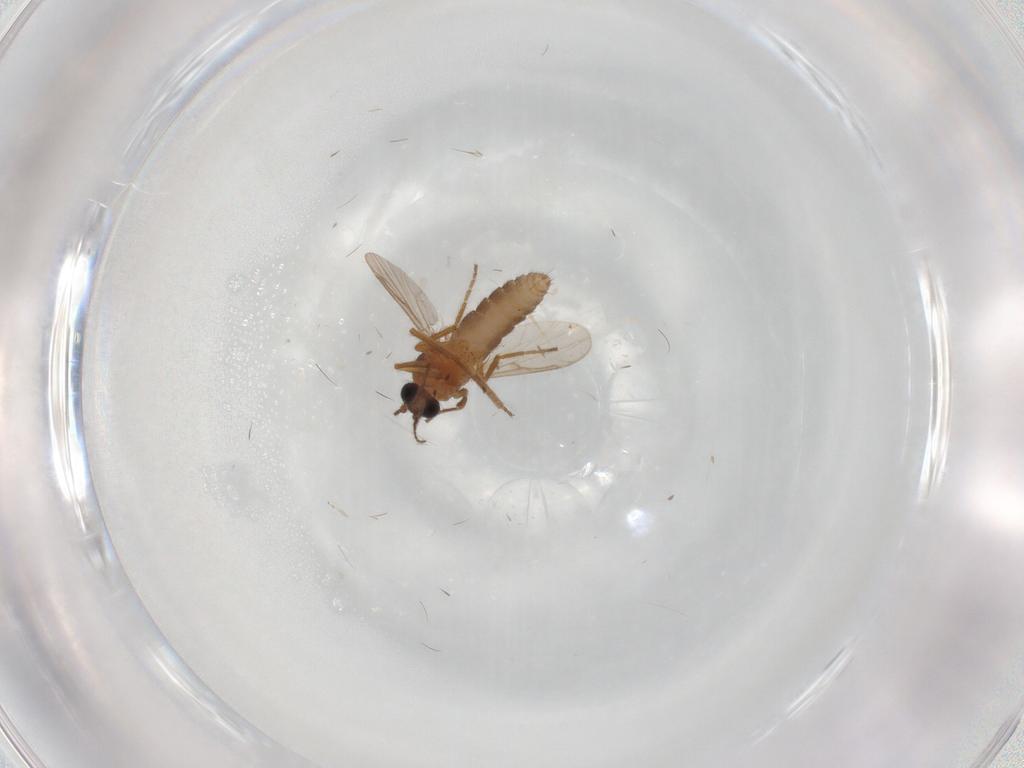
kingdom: Animalia
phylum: Arthropoda
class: Insecta
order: Diptera
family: Ceratopogonidae
